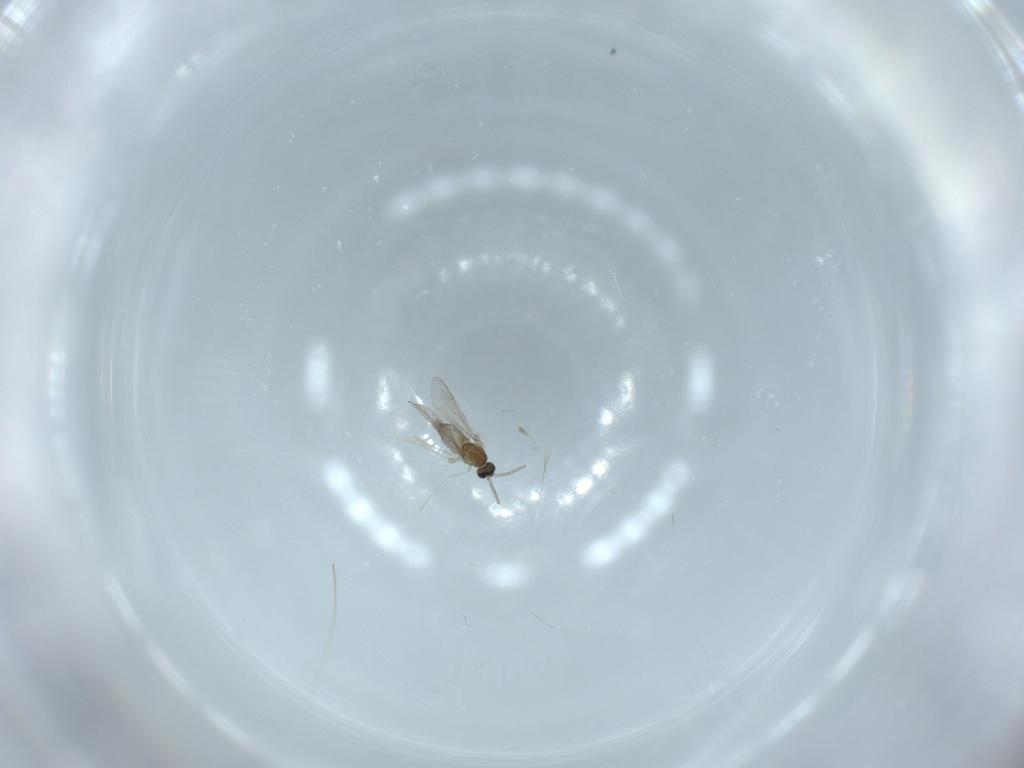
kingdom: Animalia
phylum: Arthropoda
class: Insecta
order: Diptera
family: Cecidomyiidae
